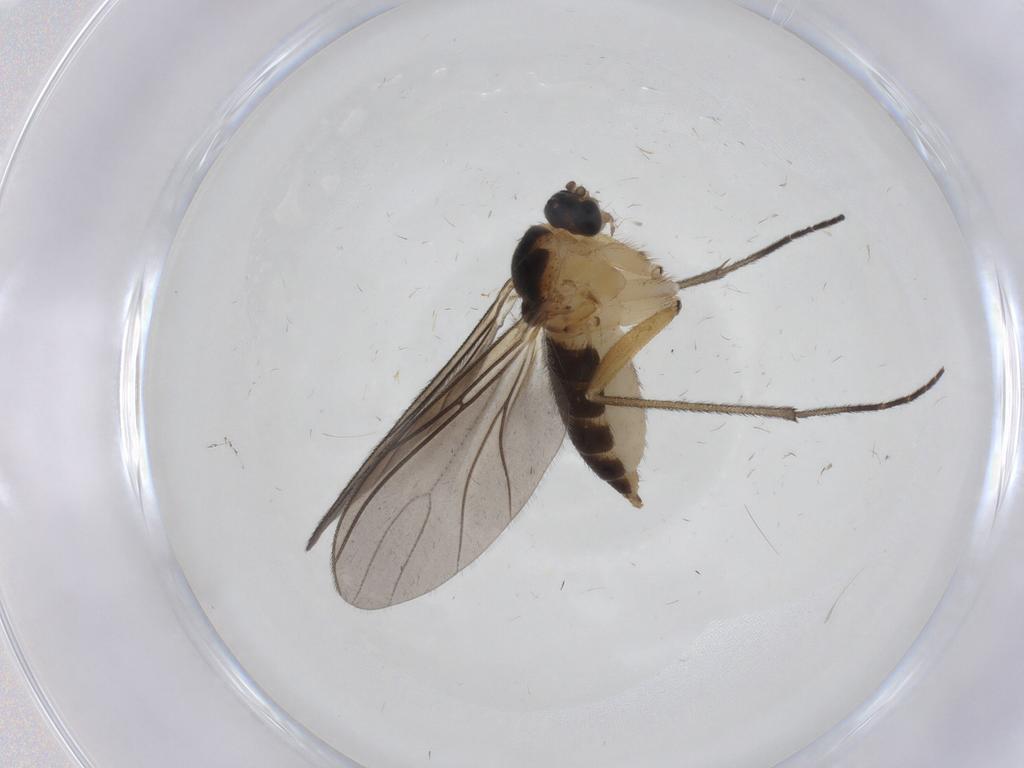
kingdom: Animalia
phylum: Arthropoda
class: Insecta
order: Diptera
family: Sciaridae
